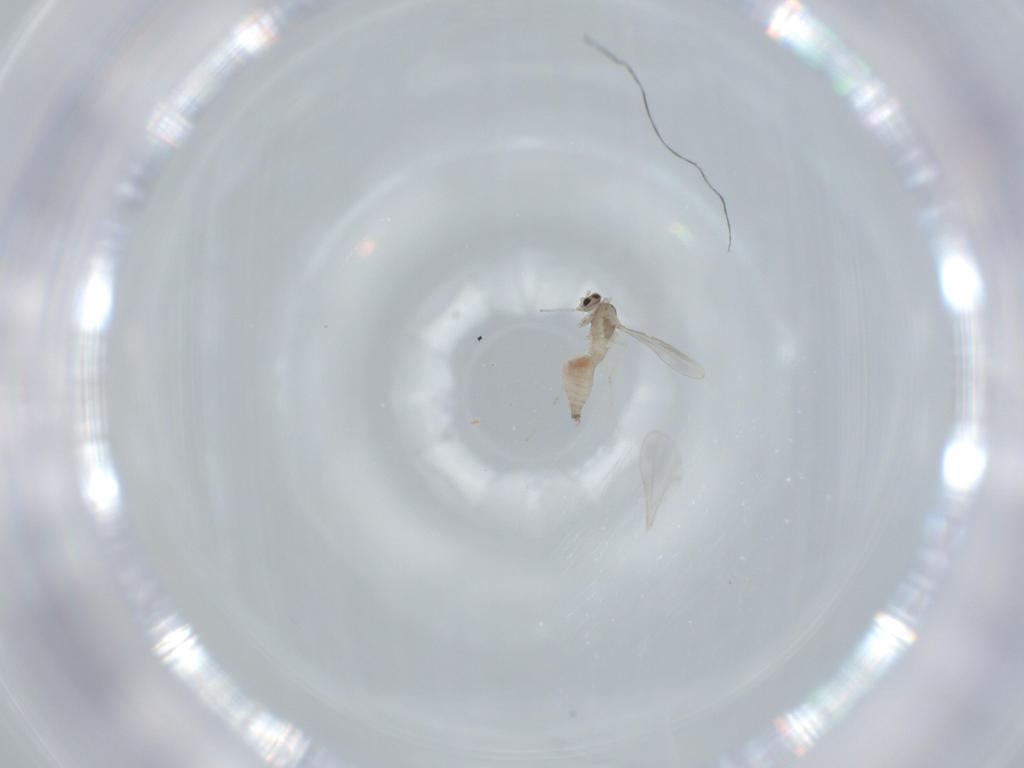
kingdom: Animalia
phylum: Arthropoda
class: Insecta
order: Diptera
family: Cecidomyiidae
